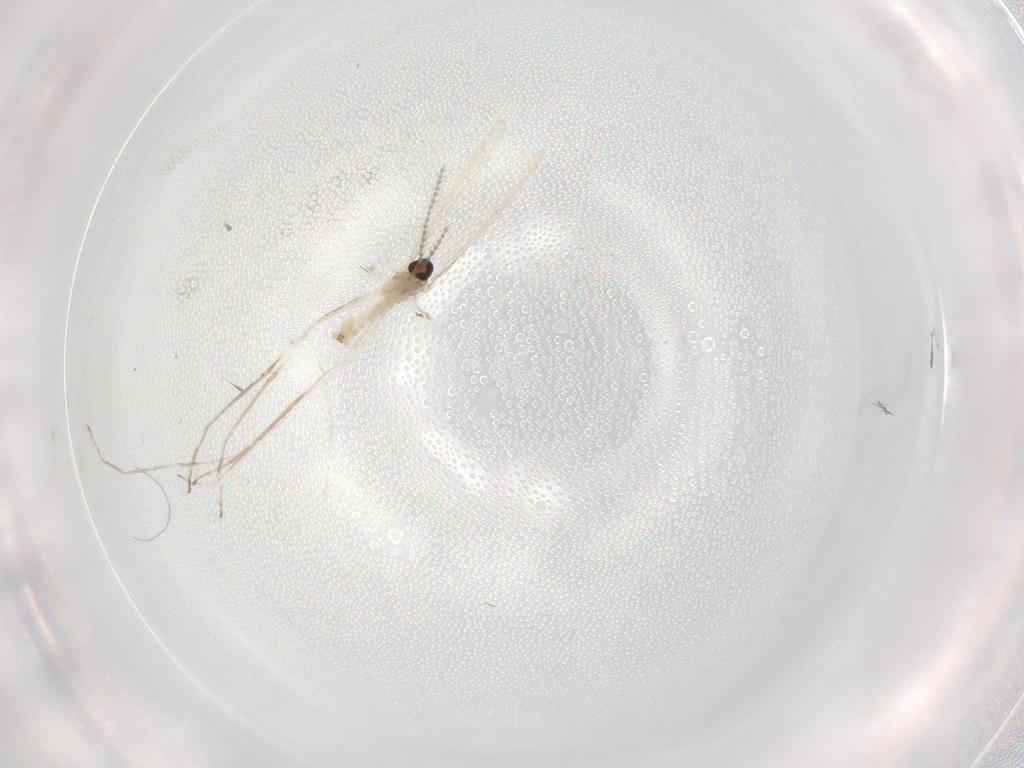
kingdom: Animalia
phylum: Arthropoda
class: Insecta
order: Diptera
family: Cecidomyiidae
